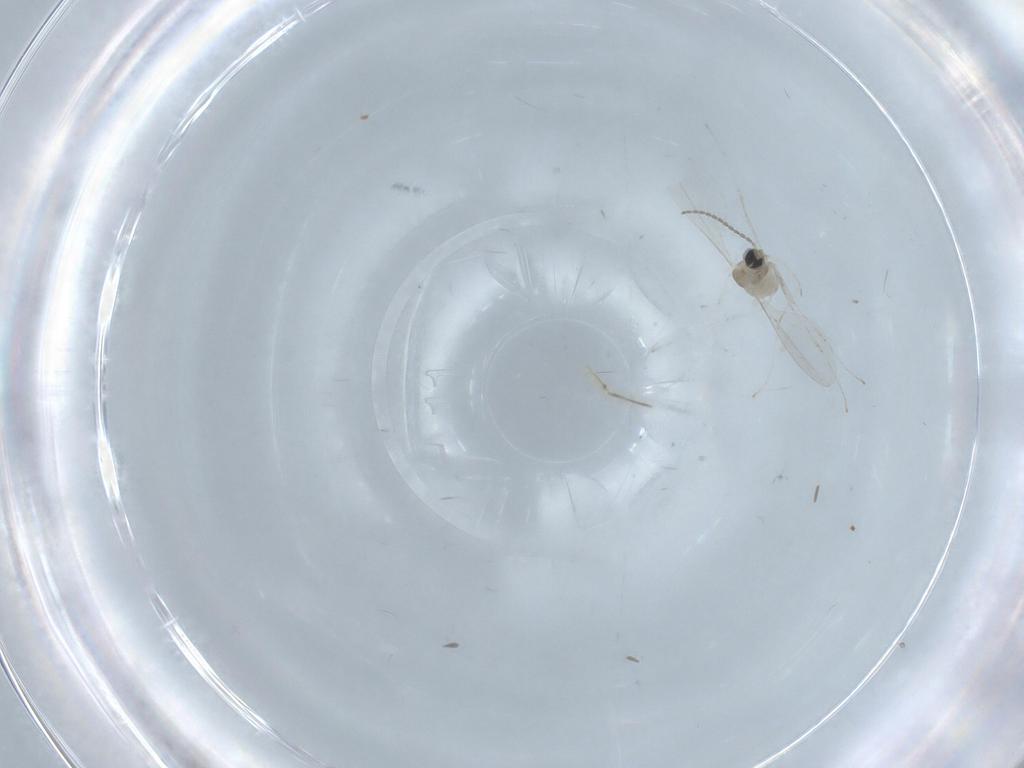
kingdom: Animalia
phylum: Arthropoda
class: Insecta
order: Diptera
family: Cecidomyiidae
